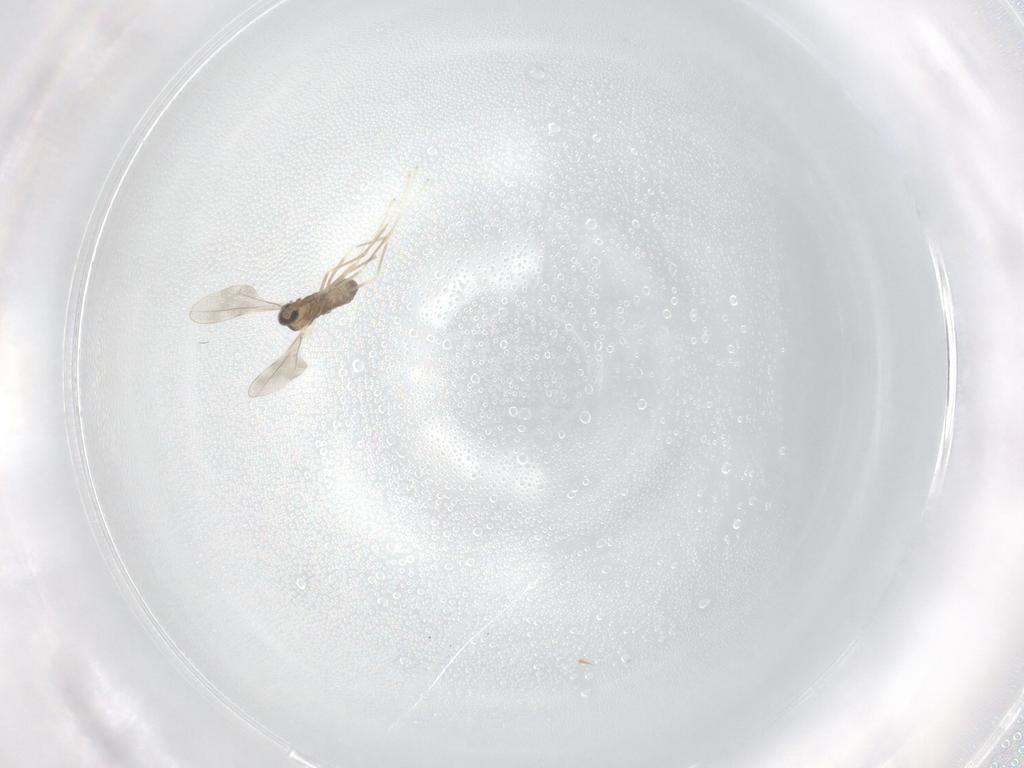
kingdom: Animalia
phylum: Arthropoda
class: Insecta
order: Diptera
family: Cecidomyiidae
